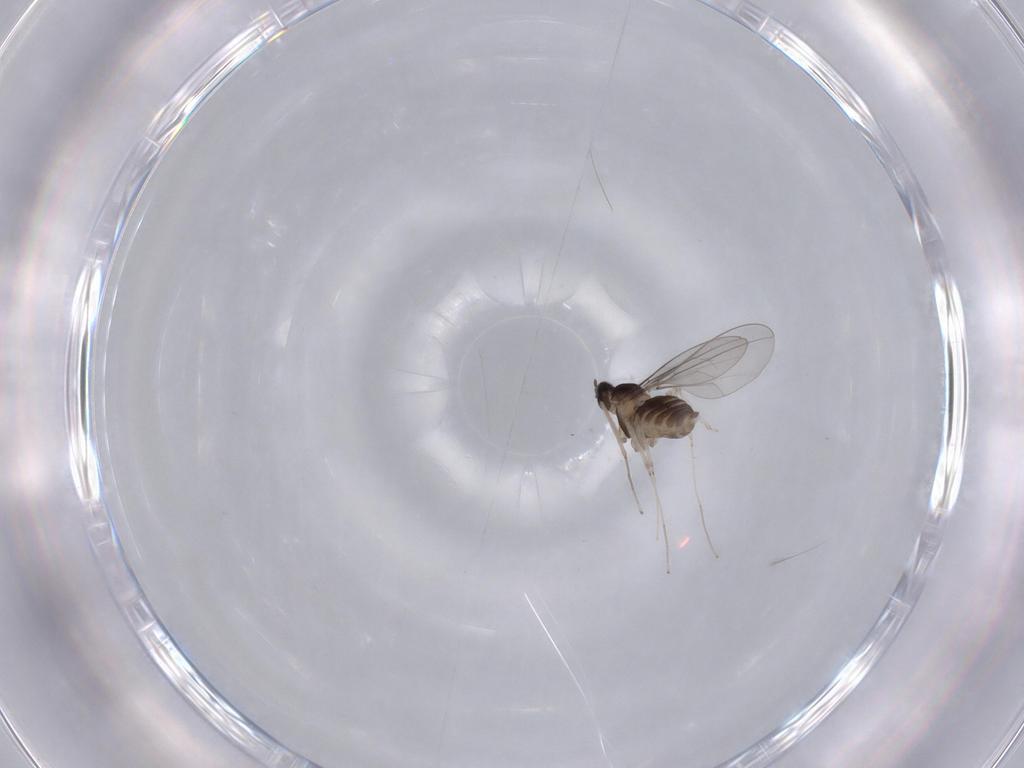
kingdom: Animalia
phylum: Arthropoda
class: Insecta
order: Diptera
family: Cecidomyiidae
